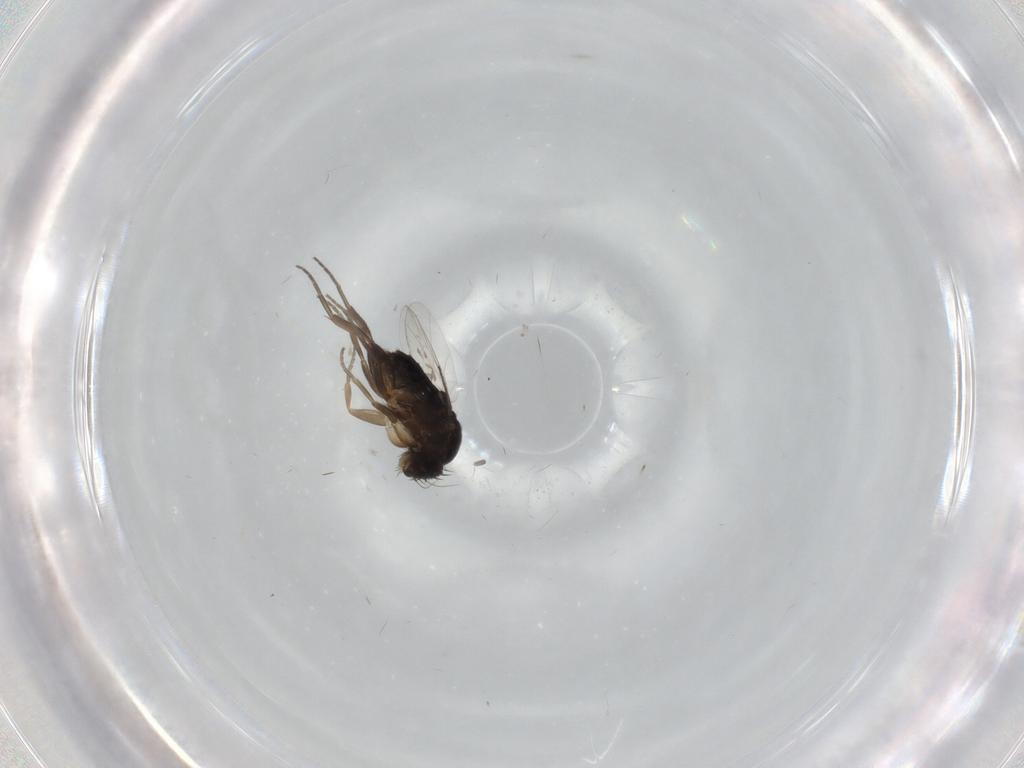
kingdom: Animalia
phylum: Arthropoda
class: Insecta
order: Diptera
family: Phoridae
